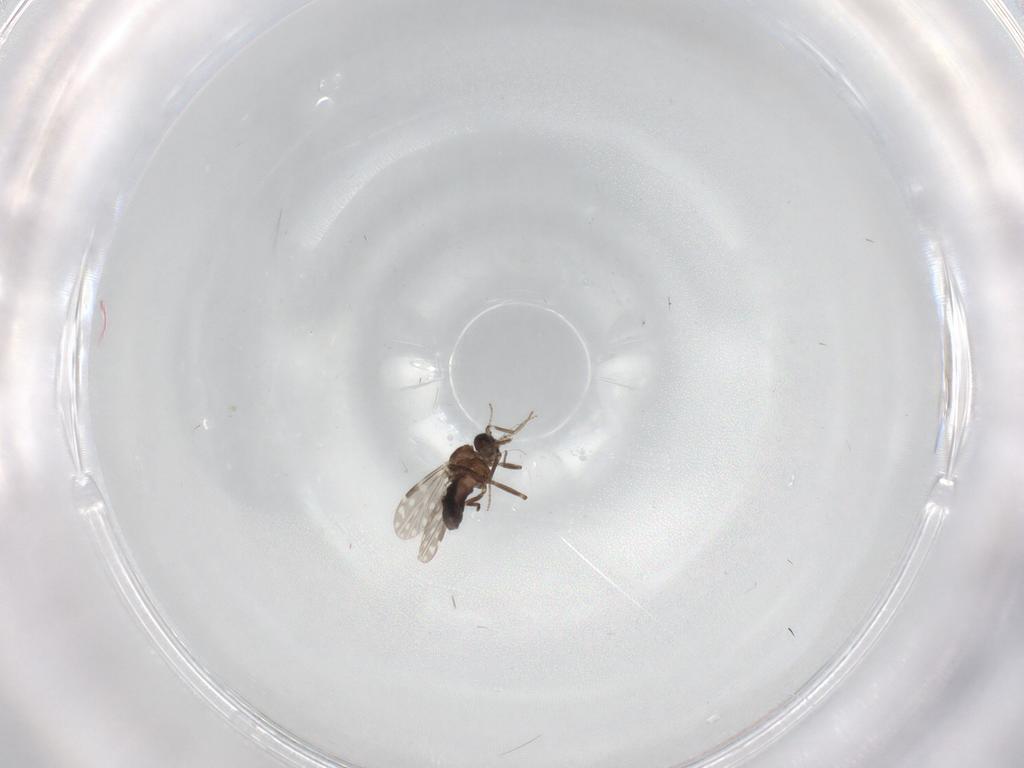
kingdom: Animalia
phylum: Arthropoda
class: Insecta
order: Diptera
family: Ceratopogonidae
